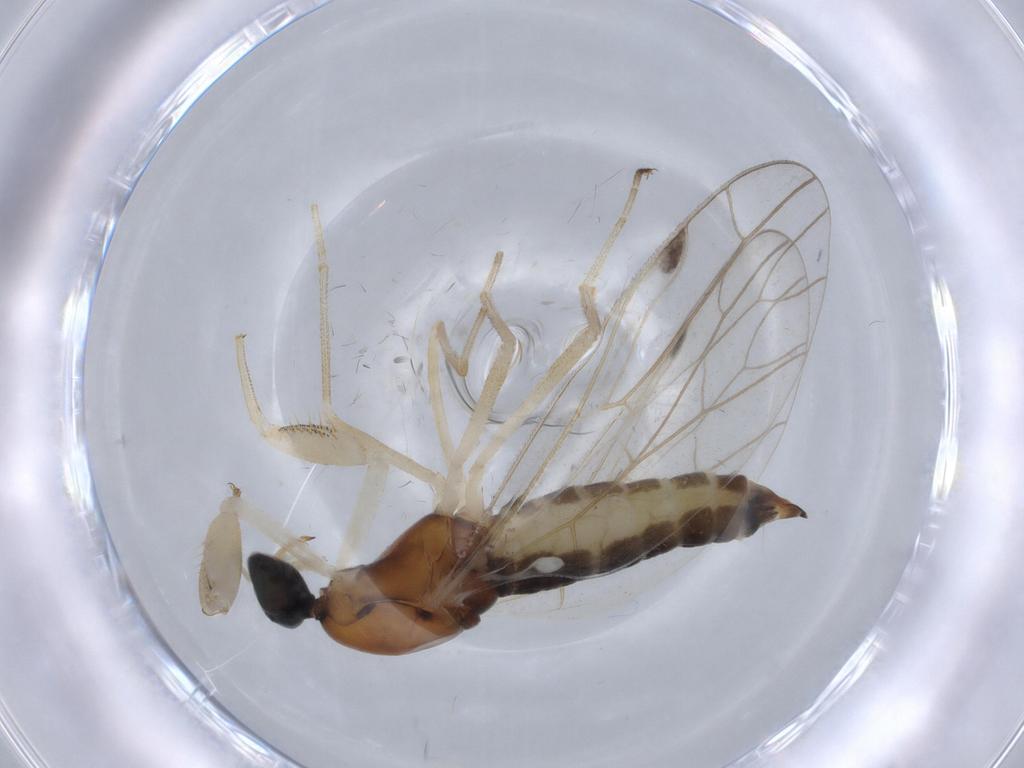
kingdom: Animalia
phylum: Arthropoda
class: Insecta
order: Diptera
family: Empididae
